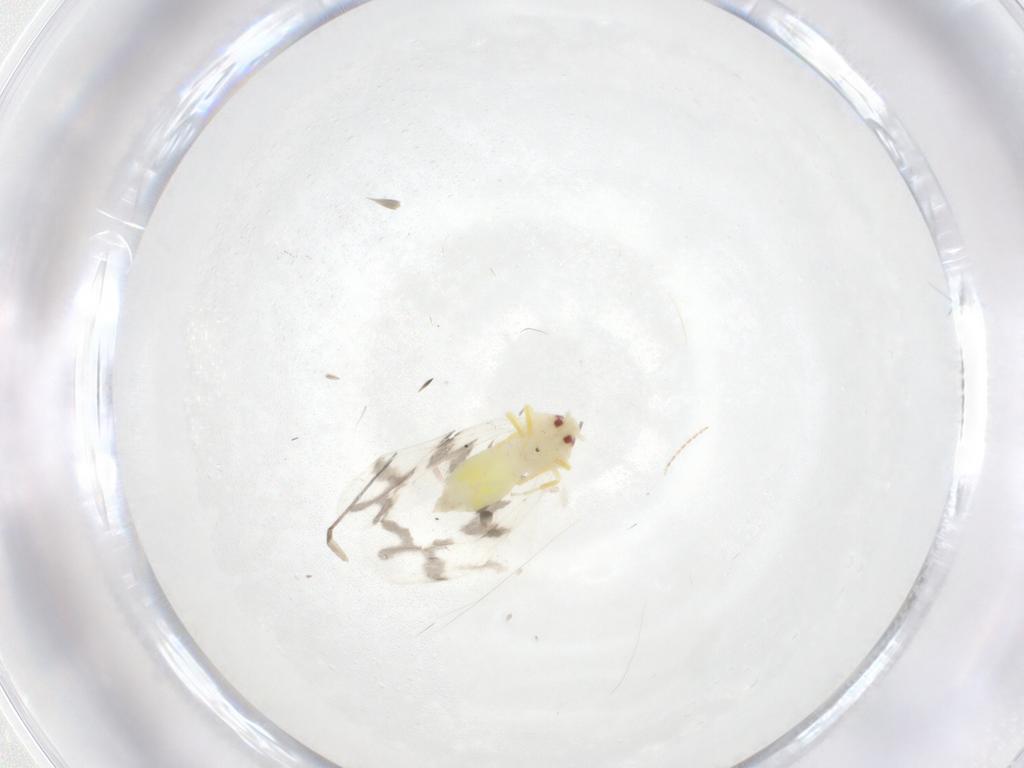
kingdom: Animalia
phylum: Arthropoda
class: Insecta
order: Hemiptera
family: Aleyrodidae
